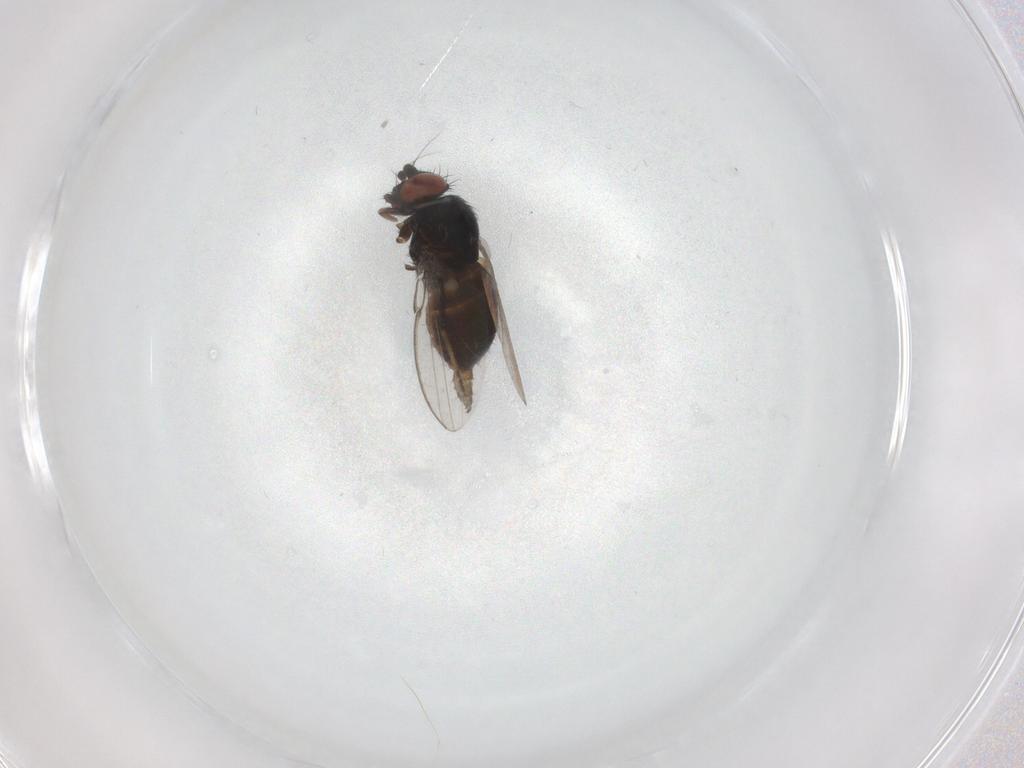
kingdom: Animalia
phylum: Arthropoda
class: Insecta
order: Diptera
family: Milichiidae
